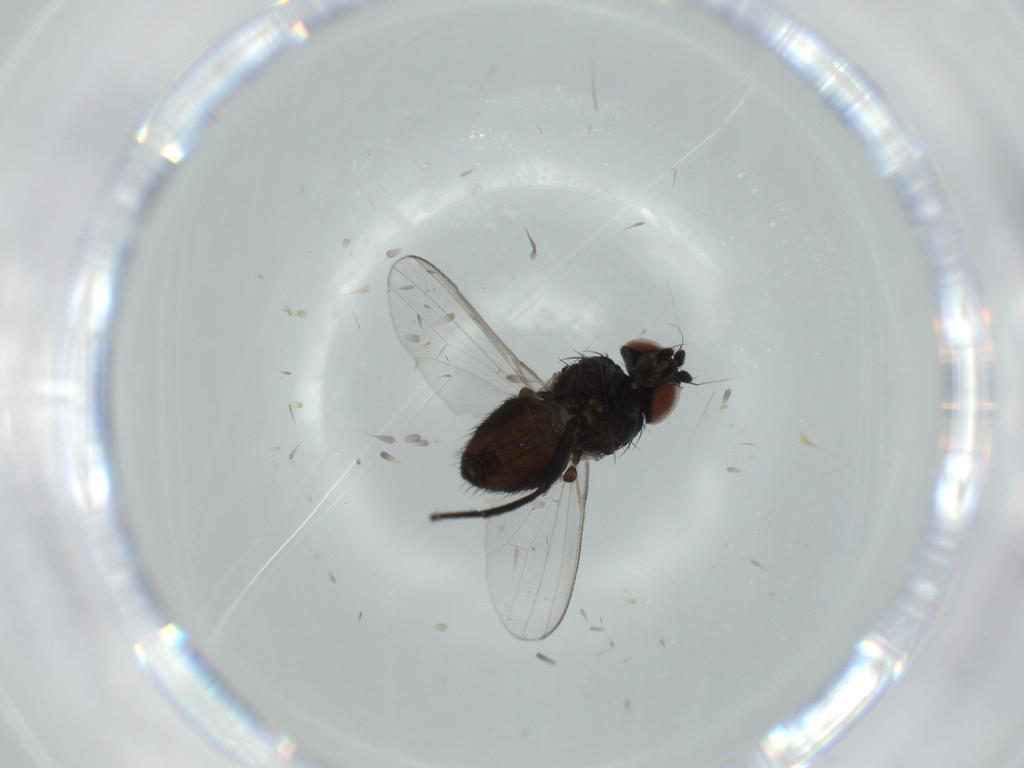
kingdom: Animalia
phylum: Arthropoda
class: Insecta
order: Diptera
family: Milichiidae
